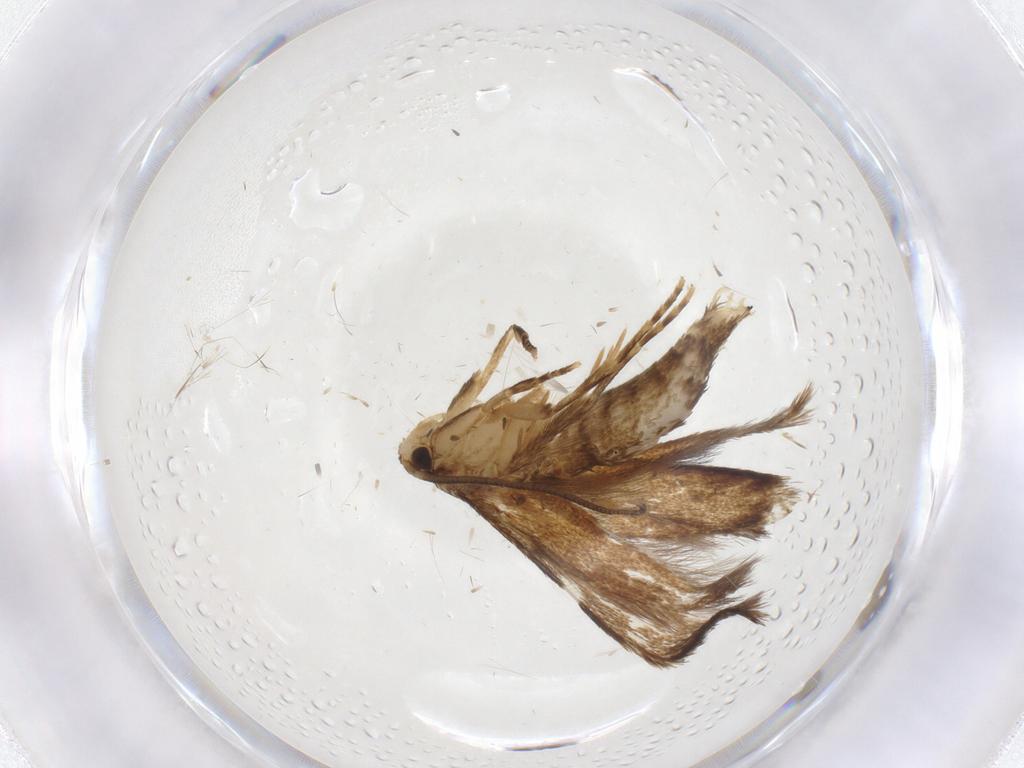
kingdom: Animalia
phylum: Arthropoda
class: Insecta
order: Lepidoptera
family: Tineidae
